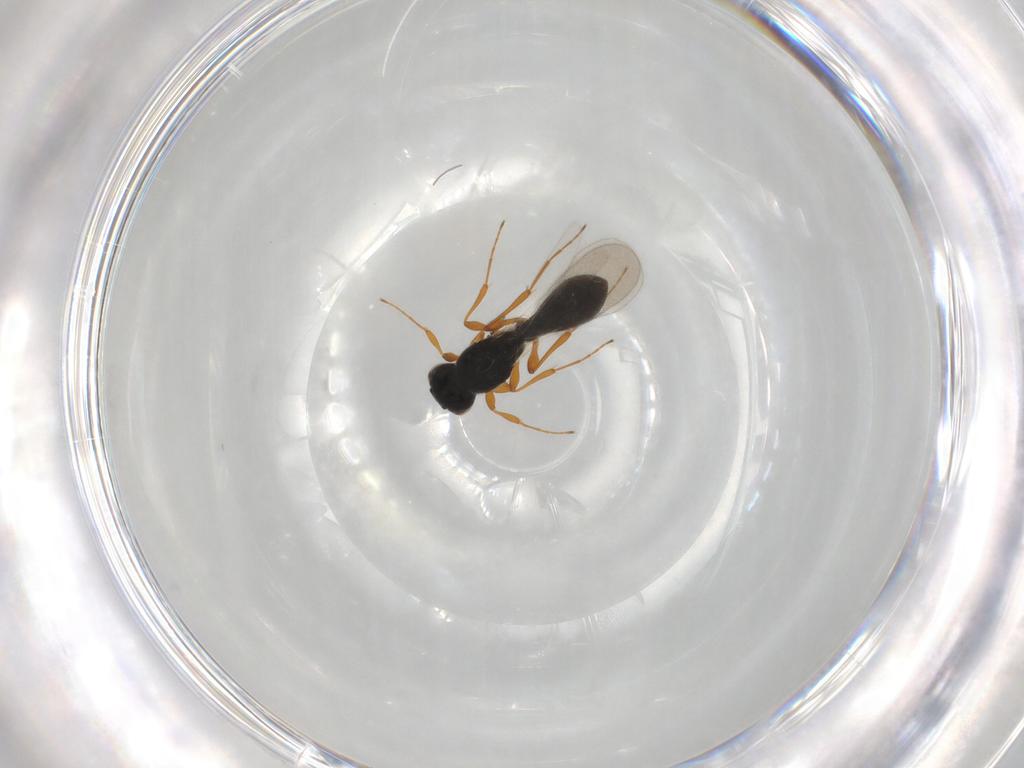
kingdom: Animalia
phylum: Arthropoda
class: Insecta
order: Hymenoptera
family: Platygastridae
